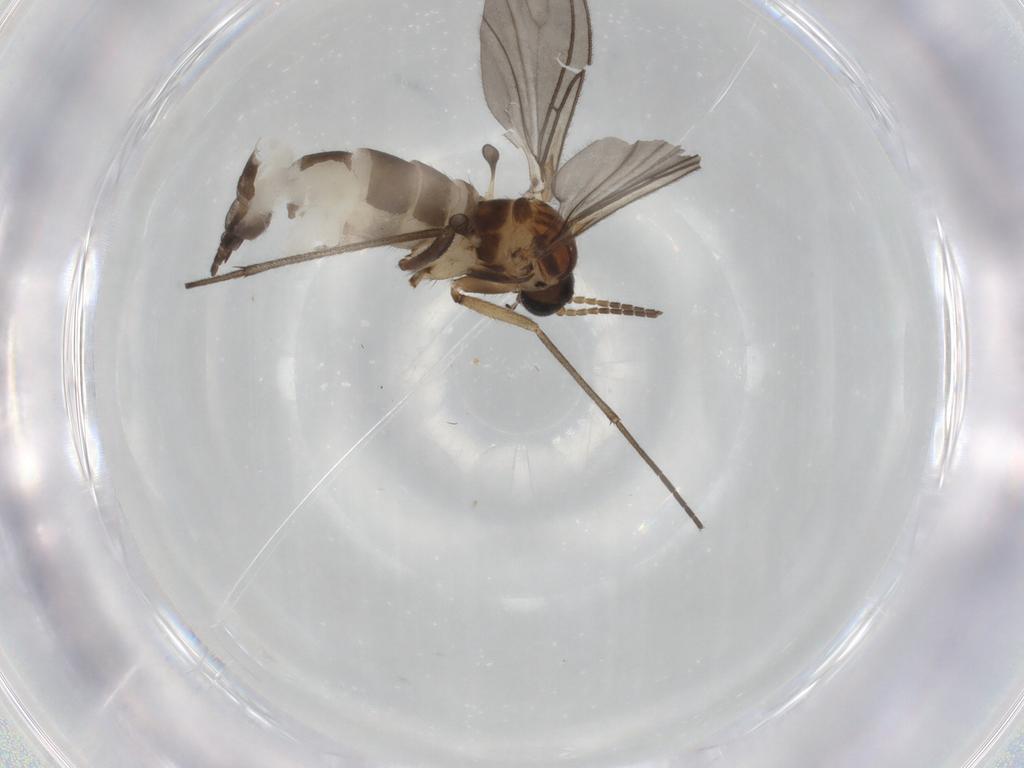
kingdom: Animalia
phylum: Arthropoda
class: Insecta
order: Diptera
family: Sciaridae
